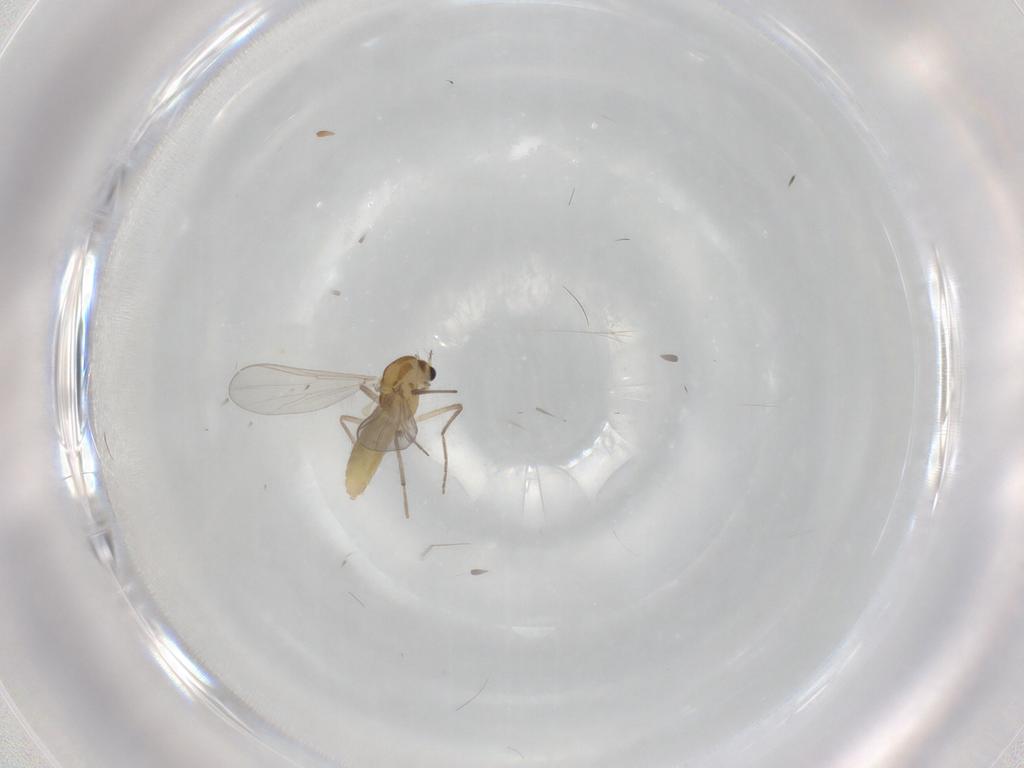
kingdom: Animalia
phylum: Arthropoda
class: Insecta
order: Diptera
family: Chironomidae
